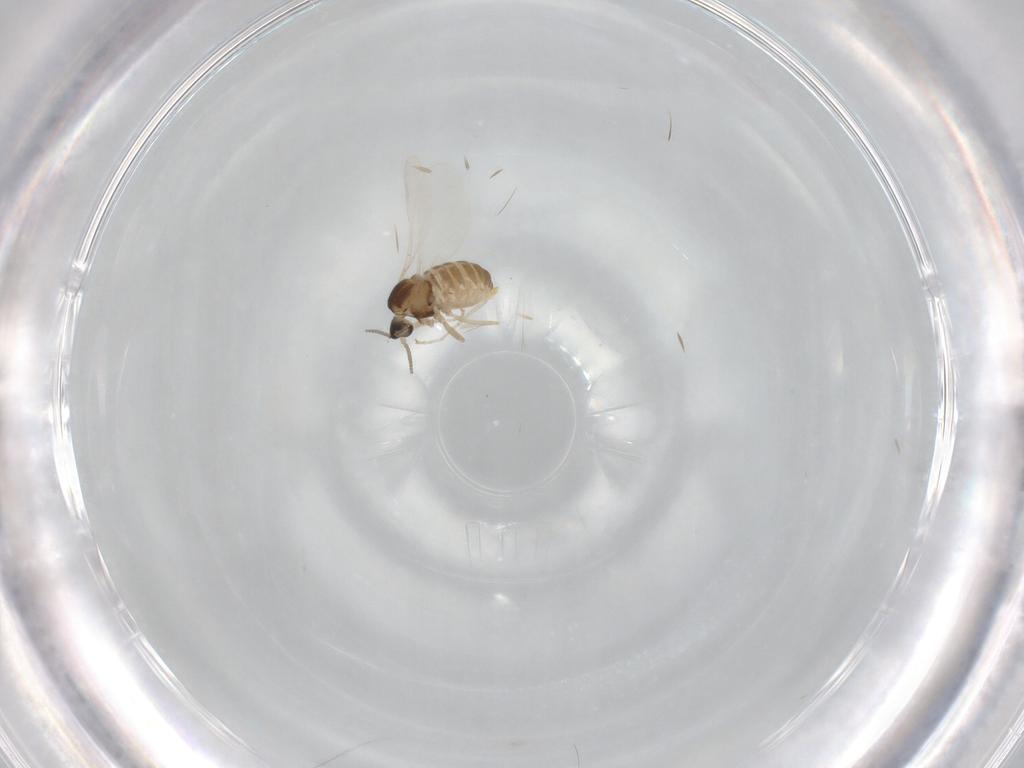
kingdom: Animalia
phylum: Arthropoda
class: Insecta
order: Diptera
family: Cecidomyiidae
